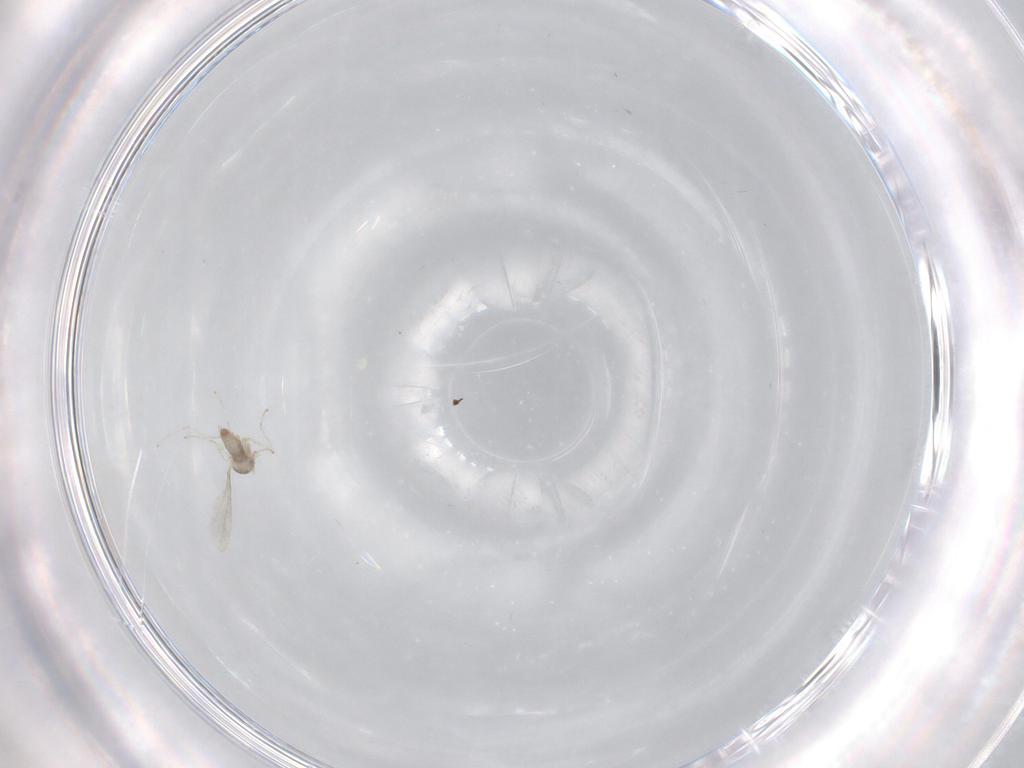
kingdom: Animalia
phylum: Arthropoda
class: Insecta
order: Diptera
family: Cecidomyiidae
